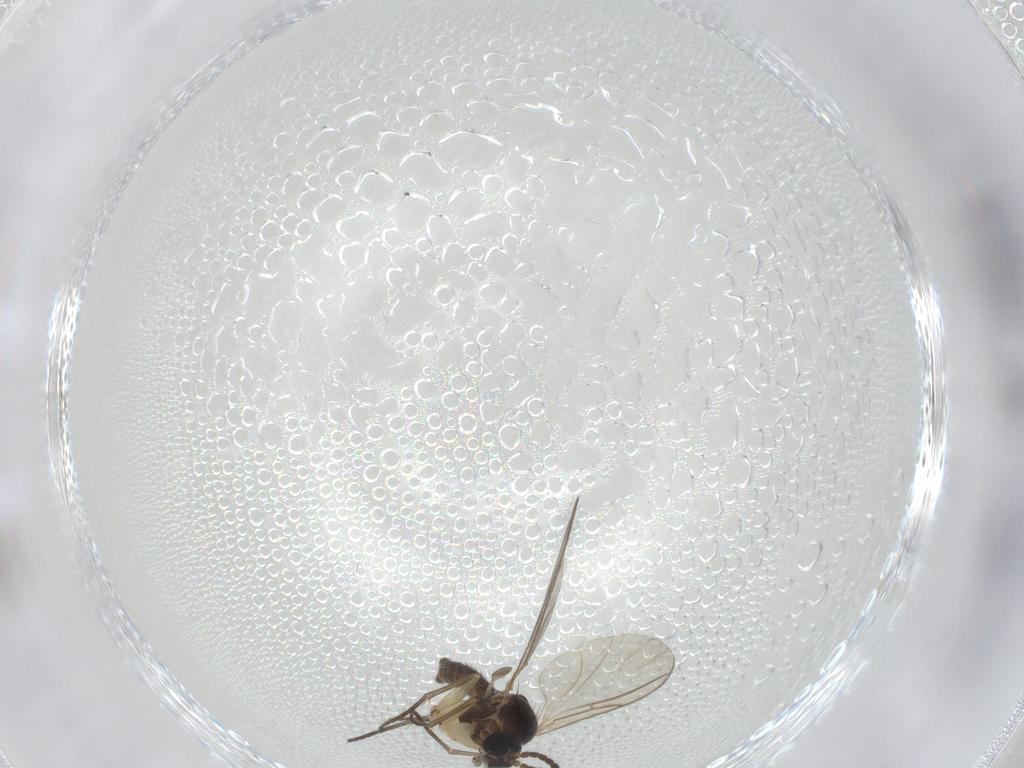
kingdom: Animalia
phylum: Arthropoda
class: Insecta
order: Diptera
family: Sciaridae
